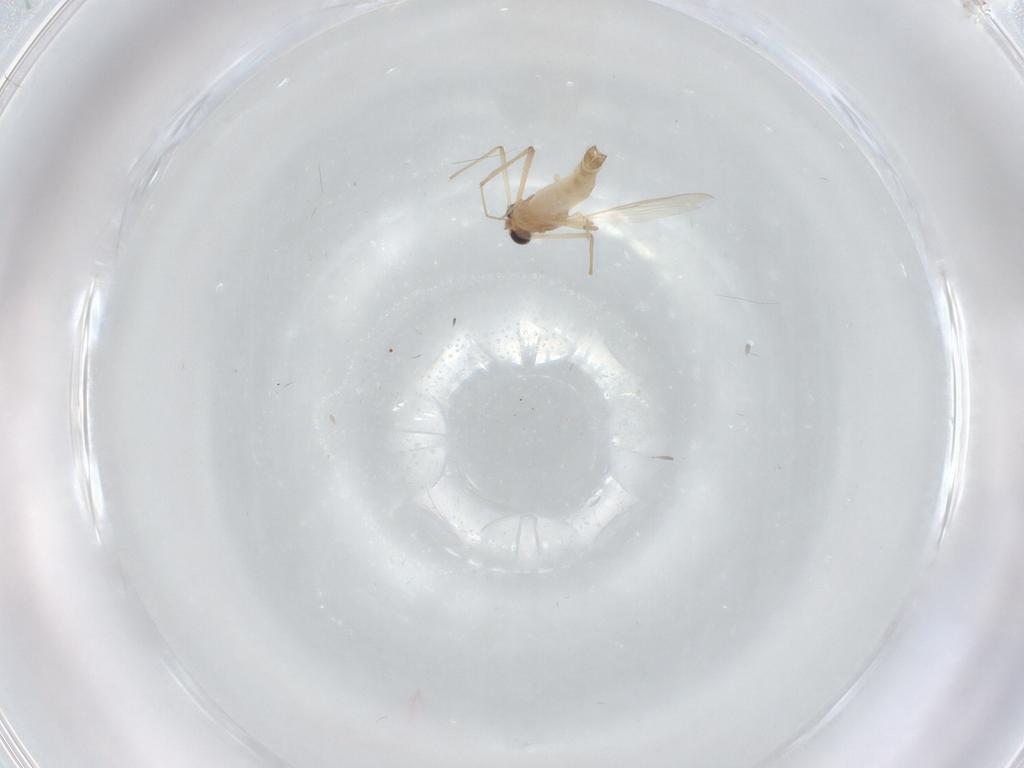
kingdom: Animalia
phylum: Arthropoda
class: Insecta
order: Diptera
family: Chironomidae
